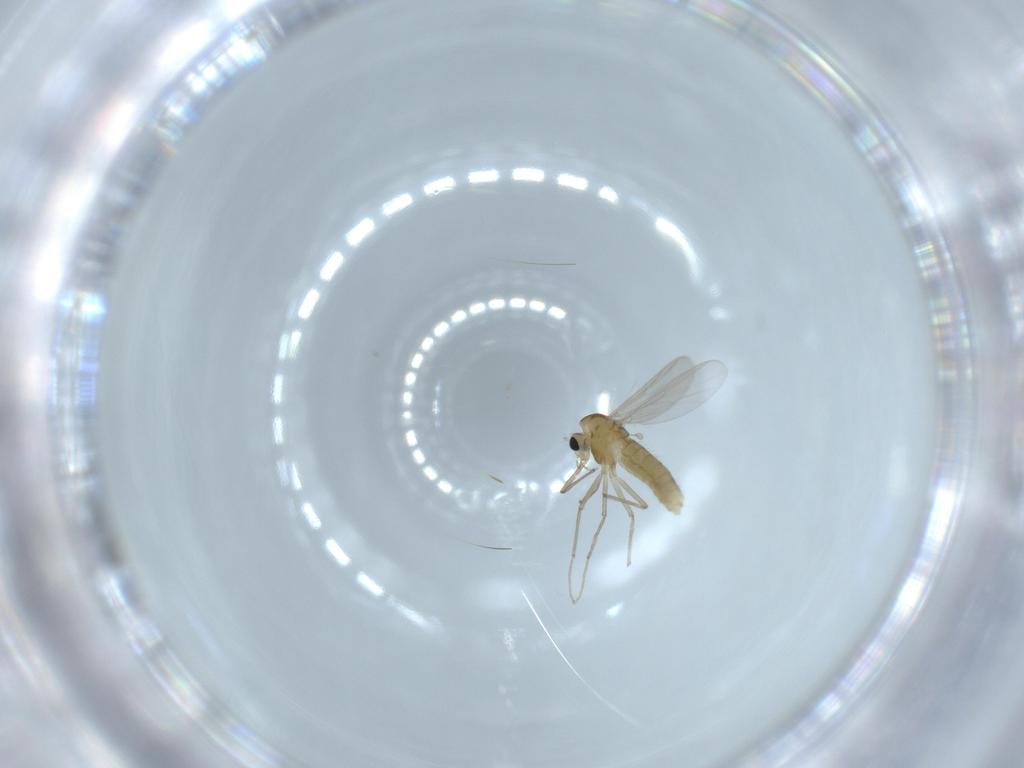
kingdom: Animalia
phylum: Arthropoda
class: Insecta
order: Diptera
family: Chironomidae
